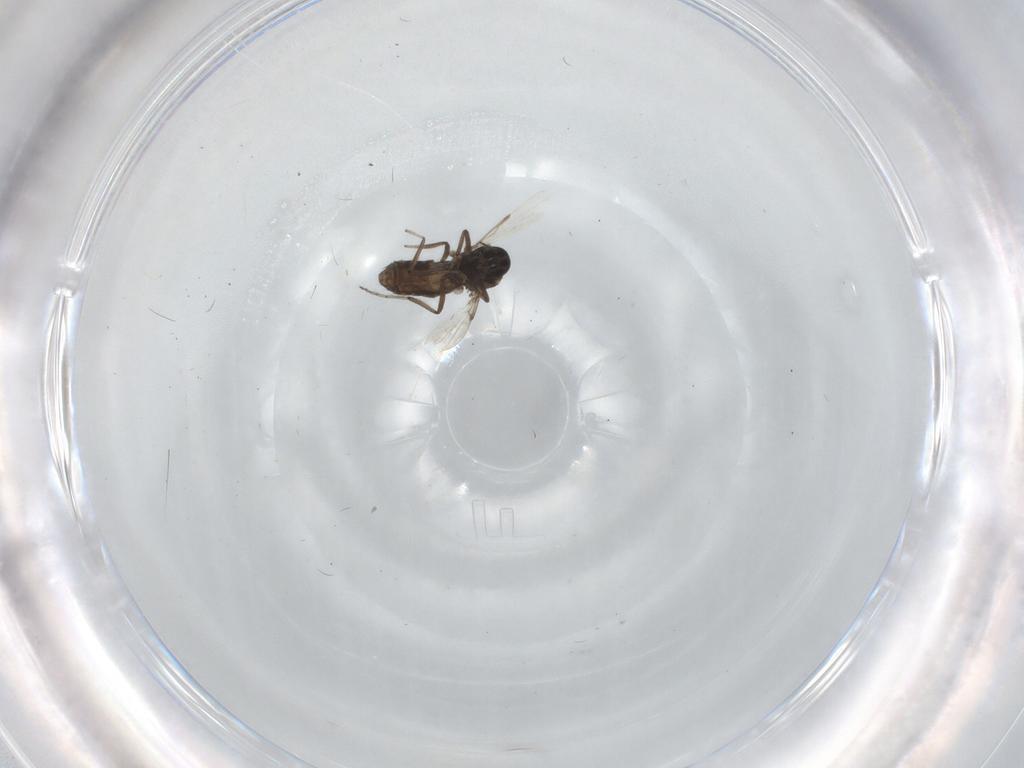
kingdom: Animalia
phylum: Arthropoda
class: Insecta
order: Diptera
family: Ceratopogonidae
